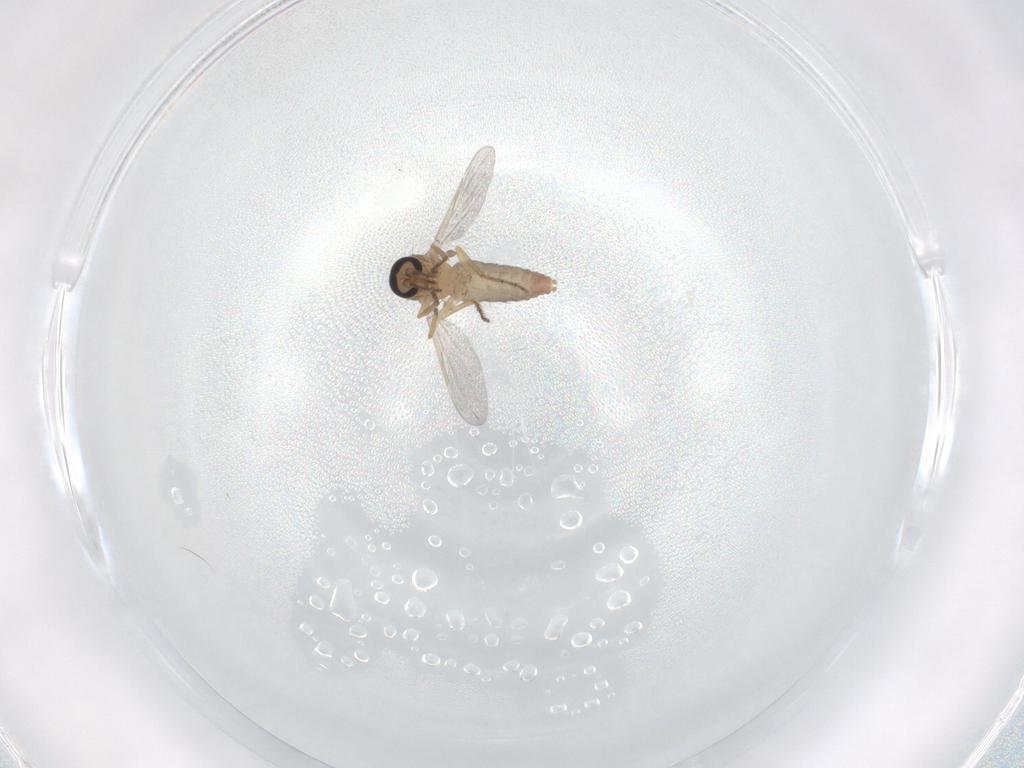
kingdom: Animalia
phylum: Arthropoda
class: Insecta
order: Diptera
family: Ceratopogonidae
